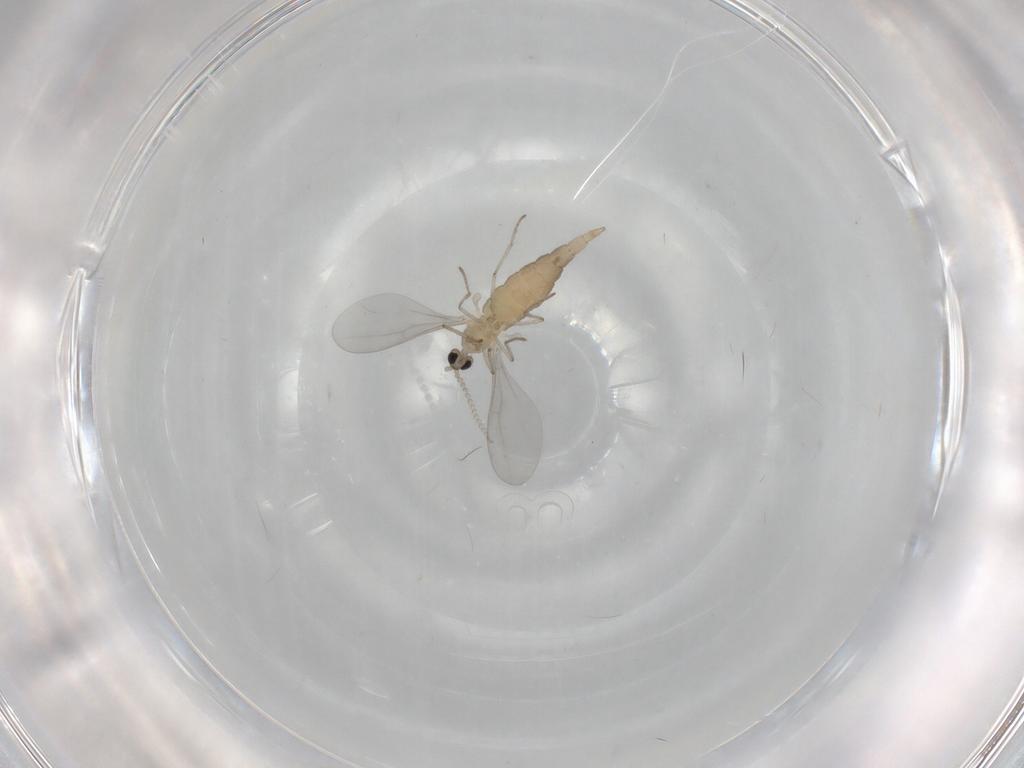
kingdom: Animalia
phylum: Arthropoda
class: Insecta
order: Diptera
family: Cecidomyiidae
